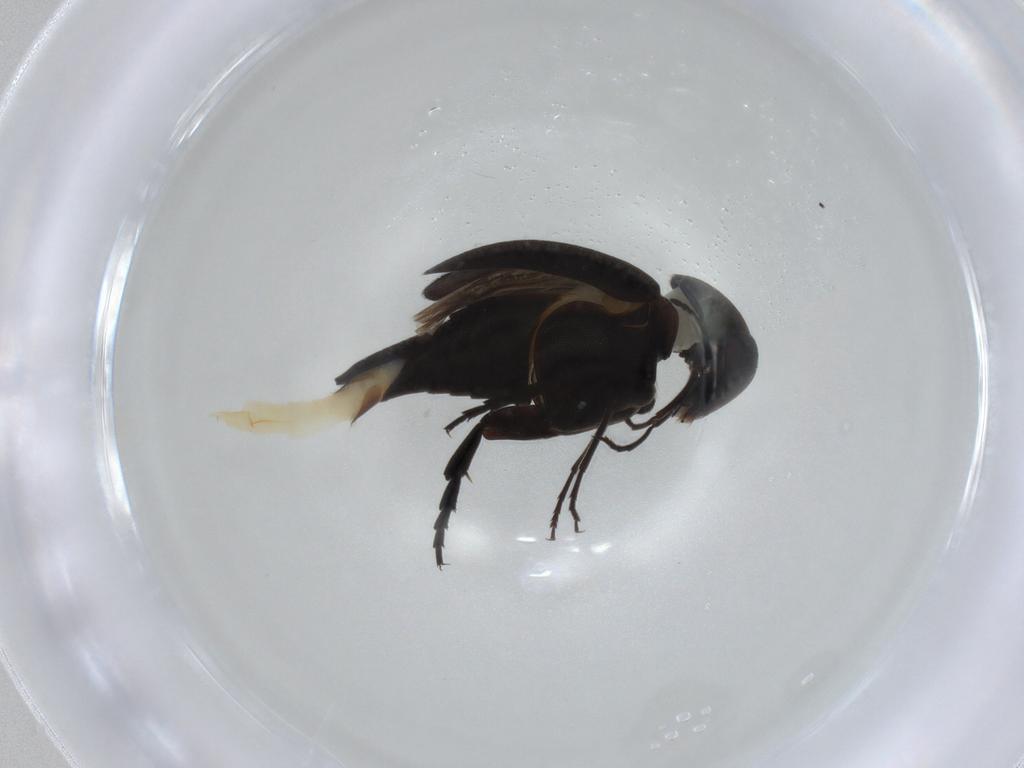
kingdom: Animalia
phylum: Arthropoda
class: Insecta
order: Coleoptera
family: Mordellidae
